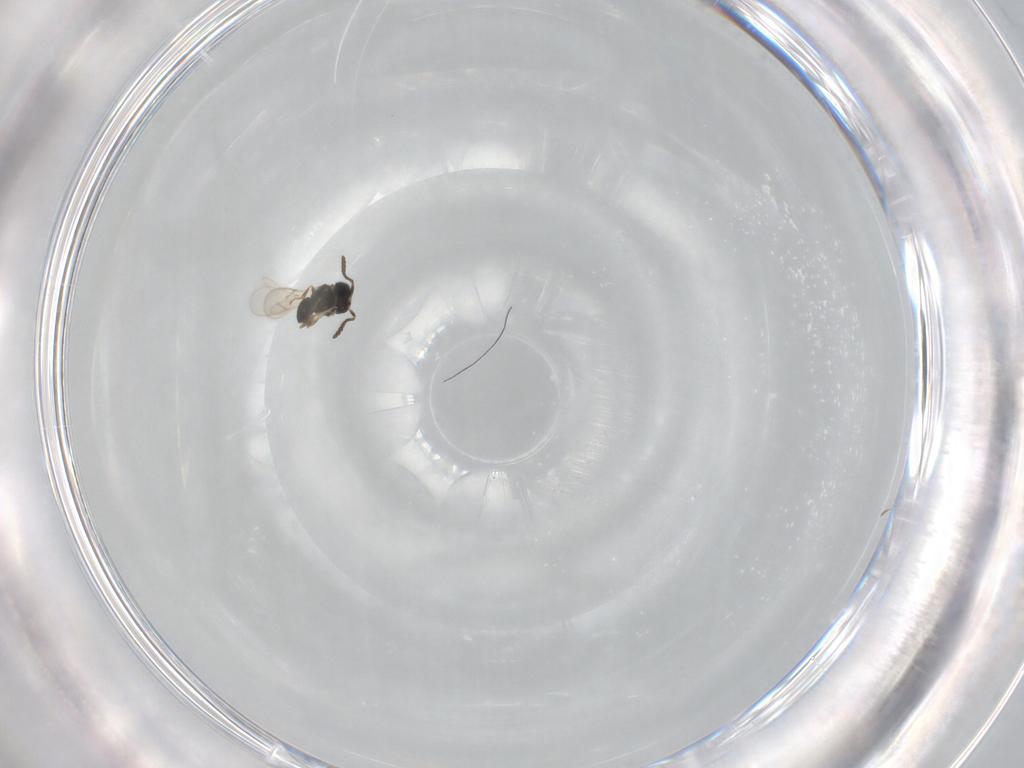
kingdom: Animalia
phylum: Arthropoda
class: Insecta
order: Hymenoptera
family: Scelionidae
